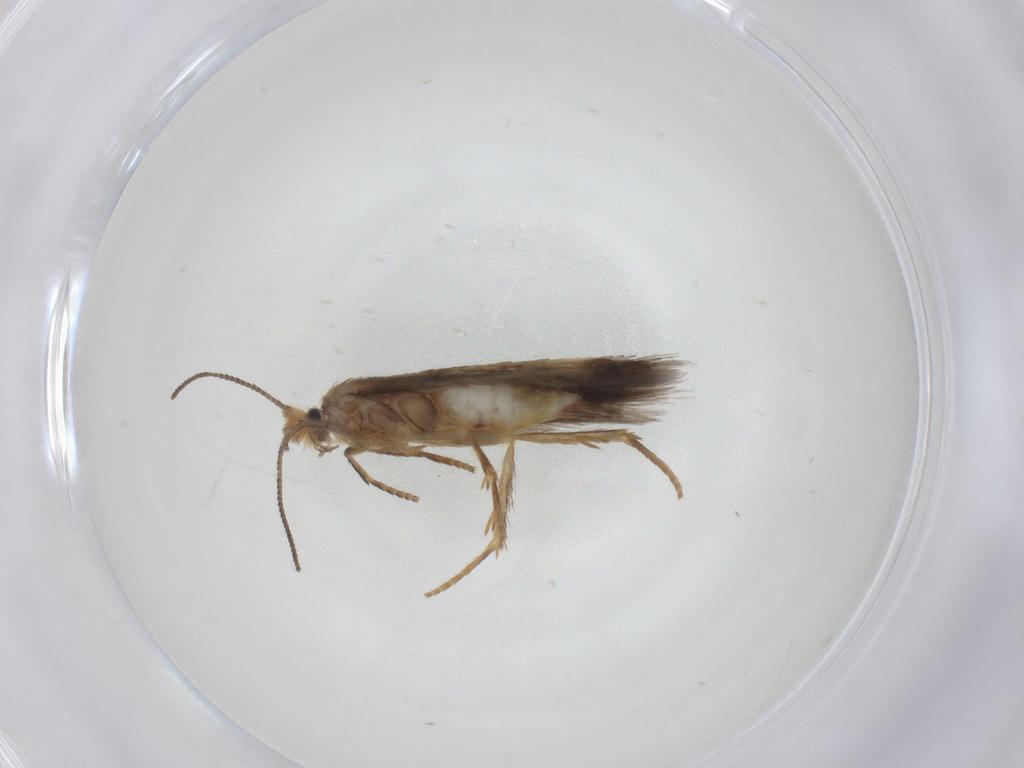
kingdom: Animalia
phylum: Arthropoda
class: Insecta
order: Lepidoptera
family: Nepticulidae
